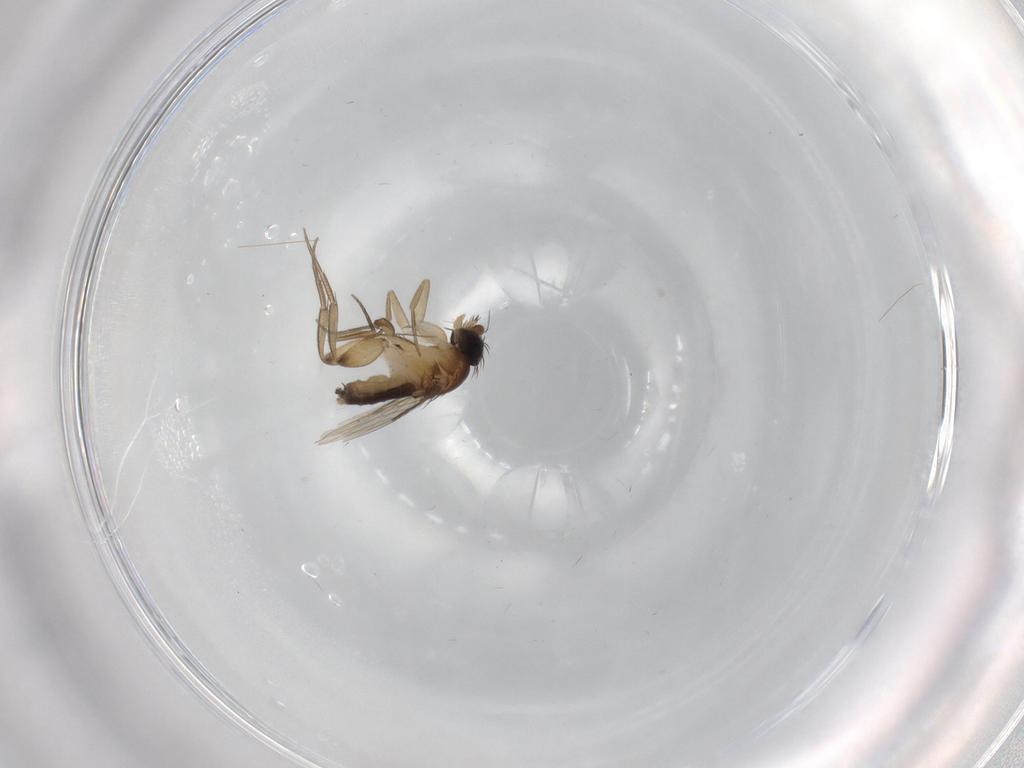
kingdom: Animalia
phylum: Arthropoda
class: Insecta
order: Diptera
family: Phoridae
